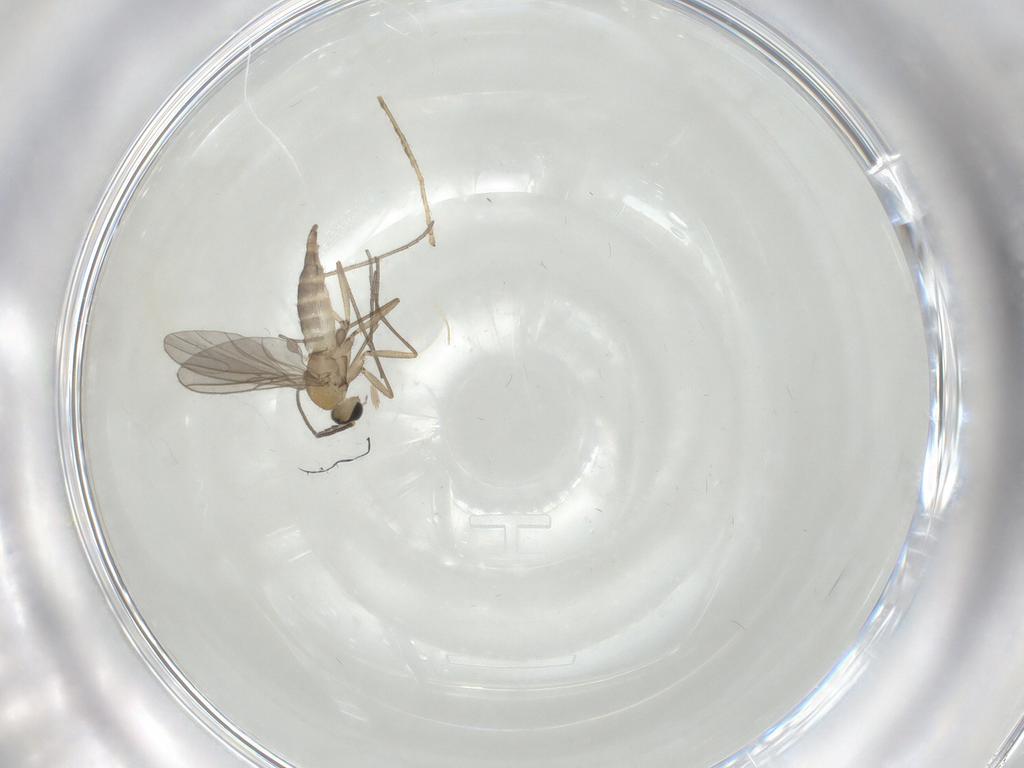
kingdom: Animalia
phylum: Arthropoda
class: Insecta
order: Diptera
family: Sciaridae
